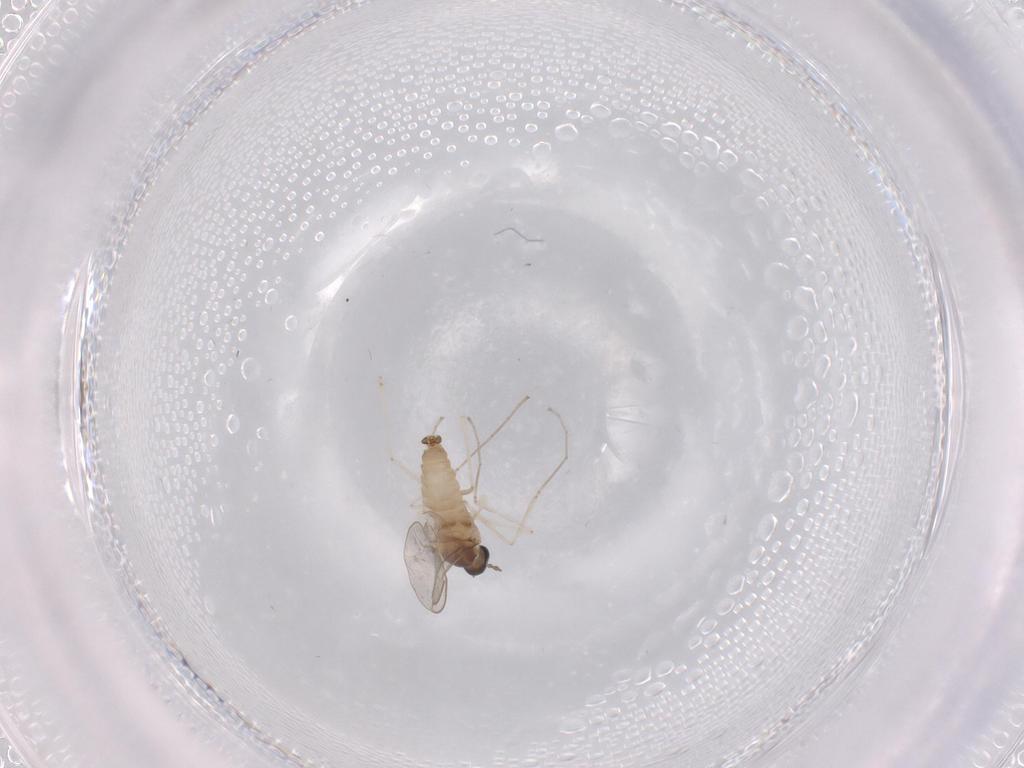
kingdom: Animalia
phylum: Arthropoda
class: Insecta
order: Diptera
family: Cecidomyiidae
